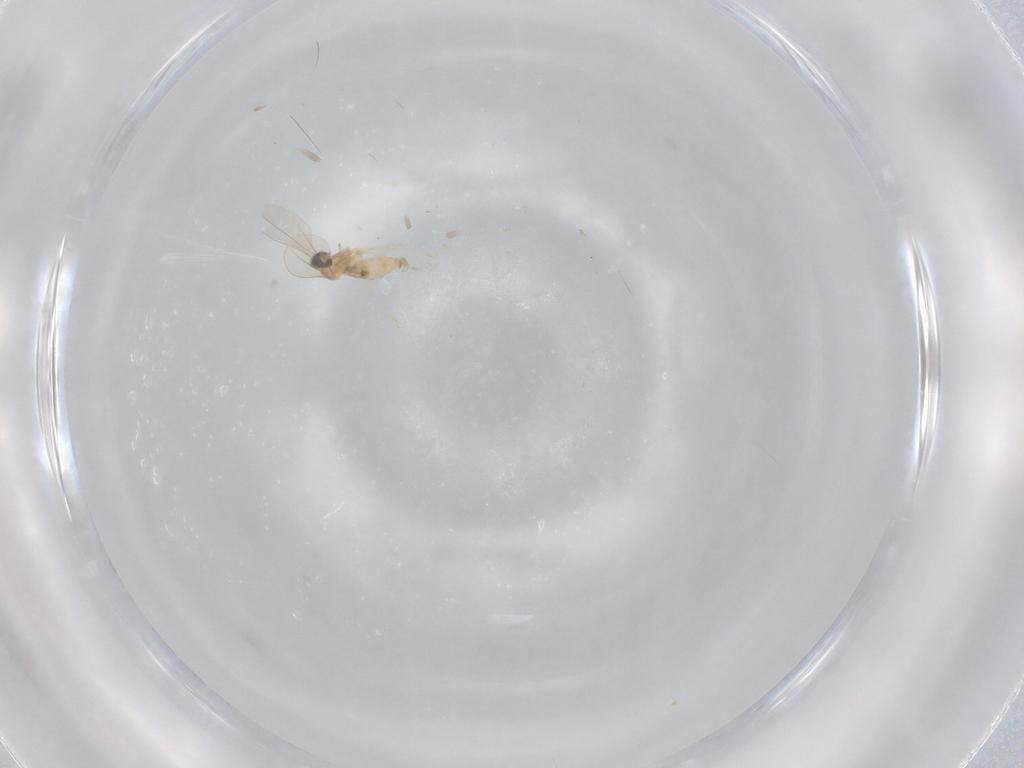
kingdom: Animalia
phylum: Arthropoda
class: Insecta
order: Diptera
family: Cecidomyiidae
